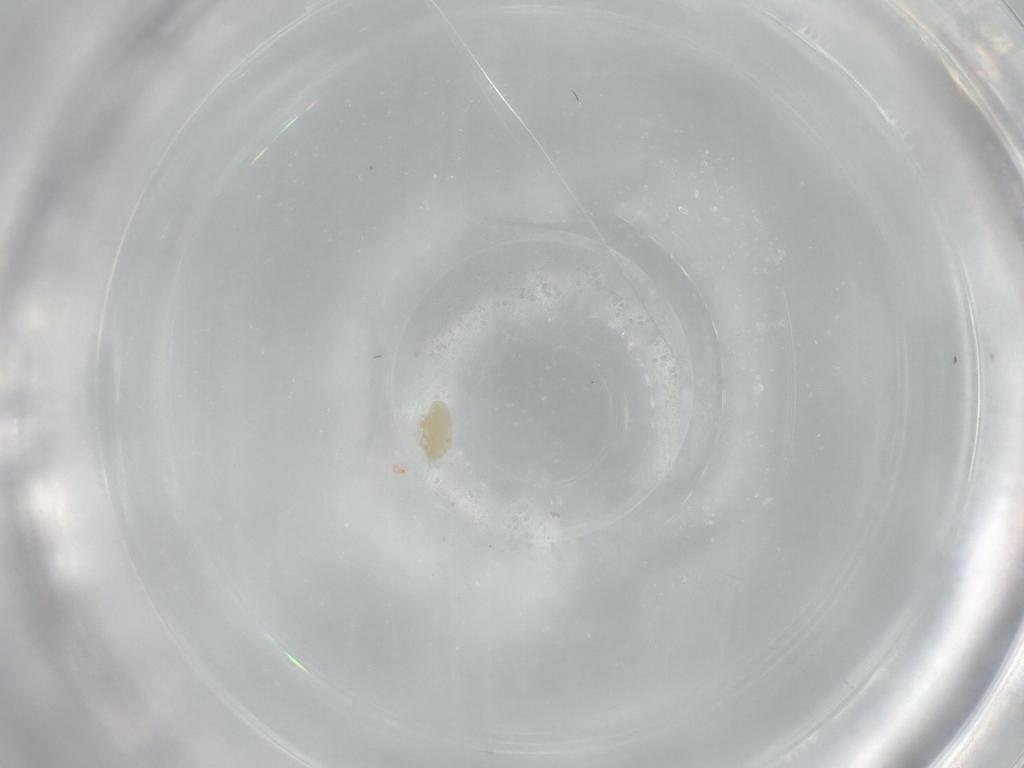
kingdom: Animalia
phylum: Arthropoda
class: Arachnida
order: Trombidiformes
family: Eupodidae
